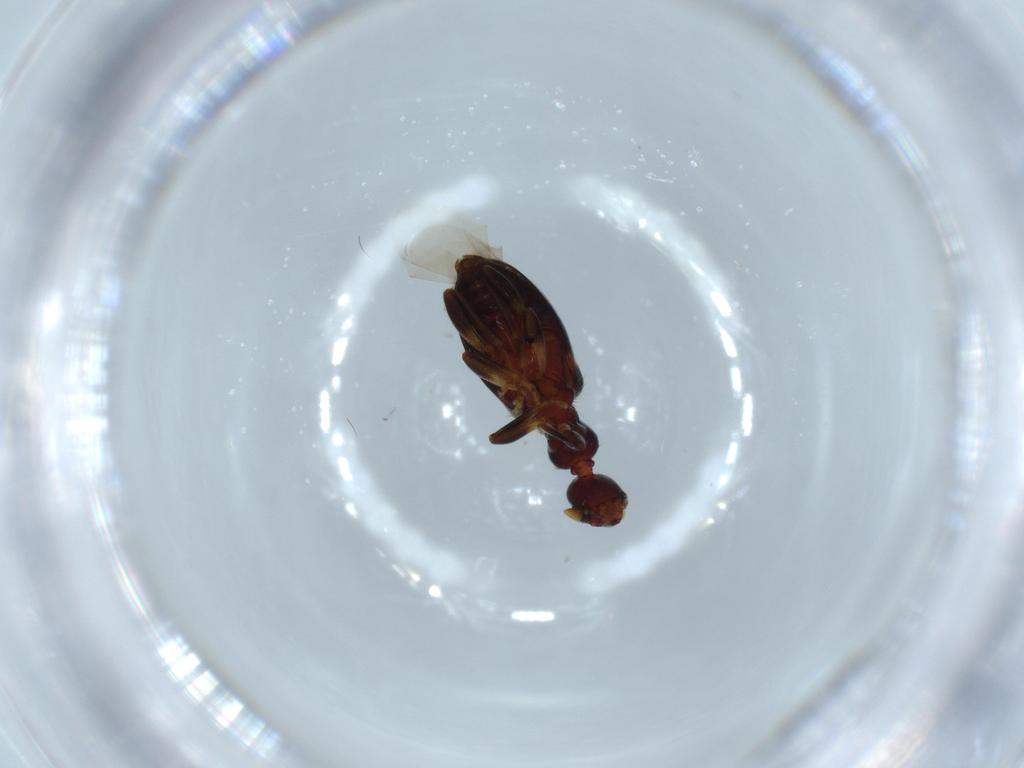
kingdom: Animalia
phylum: Arthropoda
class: Insecta
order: Coleoptera
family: Anthicidae
